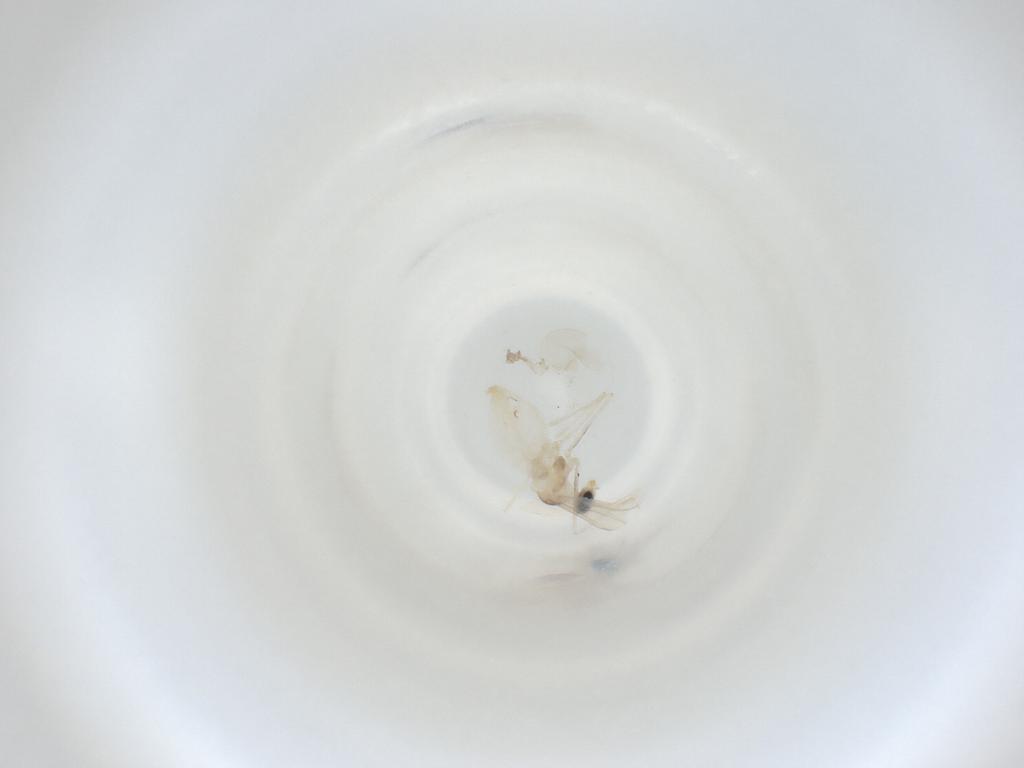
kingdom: Animalia
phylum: Arthropoda
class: Insecta
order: Diptera
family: Cecidomyiidae
